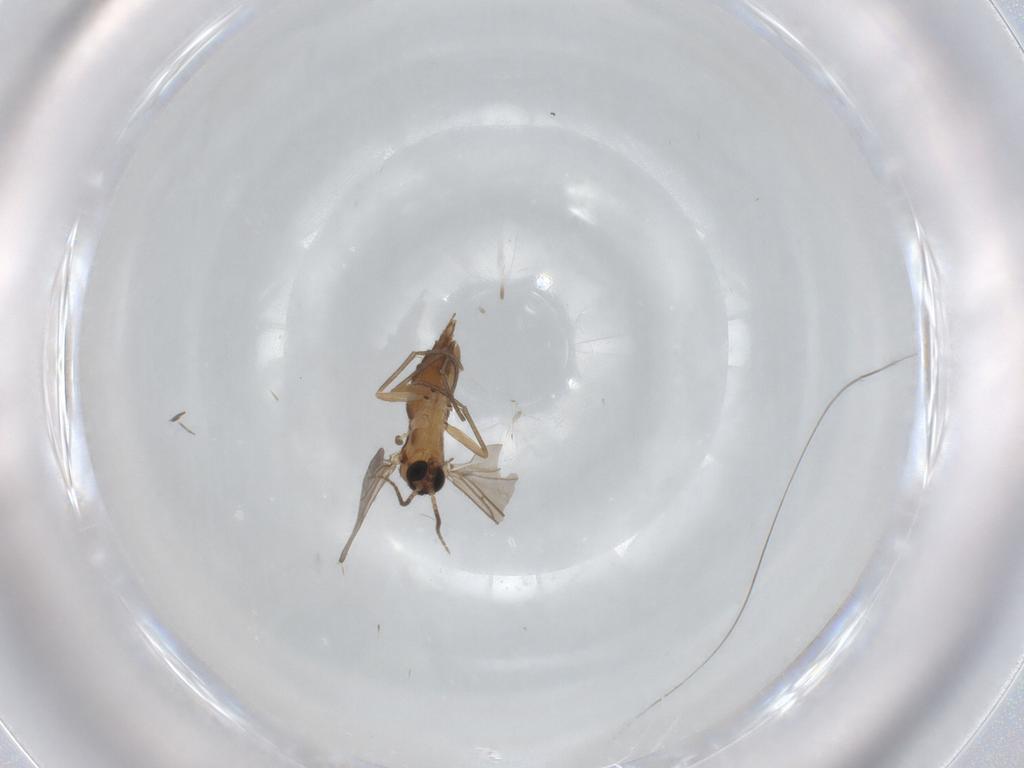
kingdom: Animalia
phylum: Arthropoda
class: Insecta
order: Diptera
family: Sciaridae
